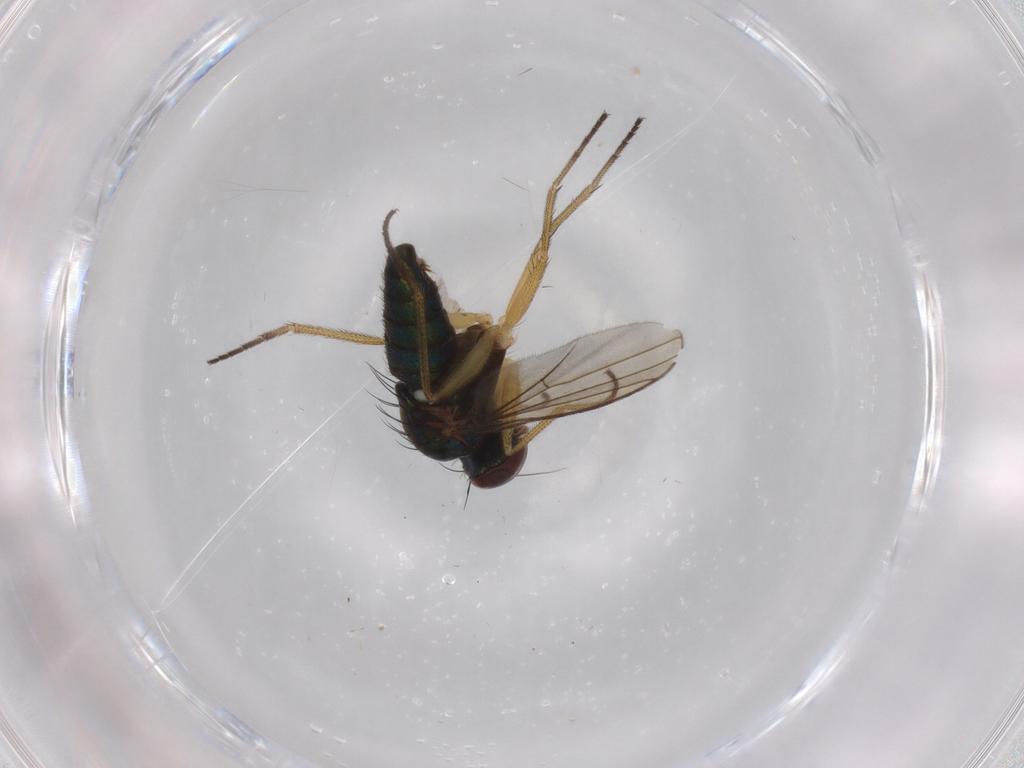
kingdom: Animalia
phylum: Arthropoda
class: Insecta
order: Diptera
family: Dolichopodidae
